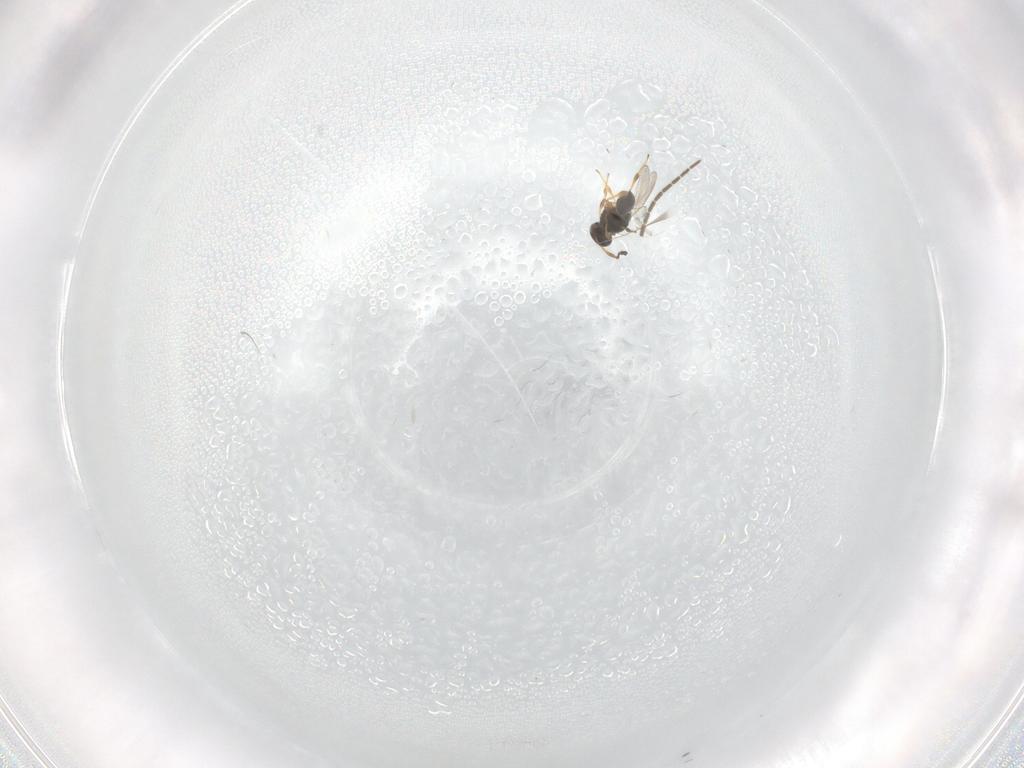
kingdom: Animalia
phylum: Arthropoda
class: Insecta
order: Hymenoptera
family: Platygastridae
